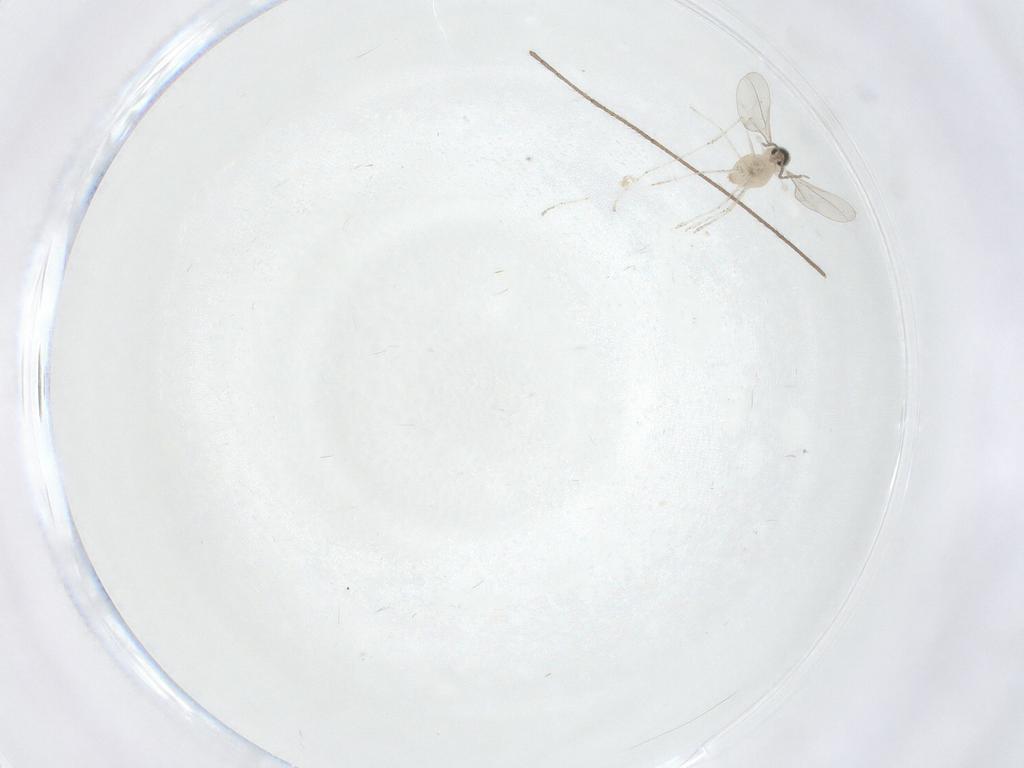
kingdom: Animalia
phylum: Arthropoda
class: Insecta
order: Diptera
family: Cecidomyiidae
